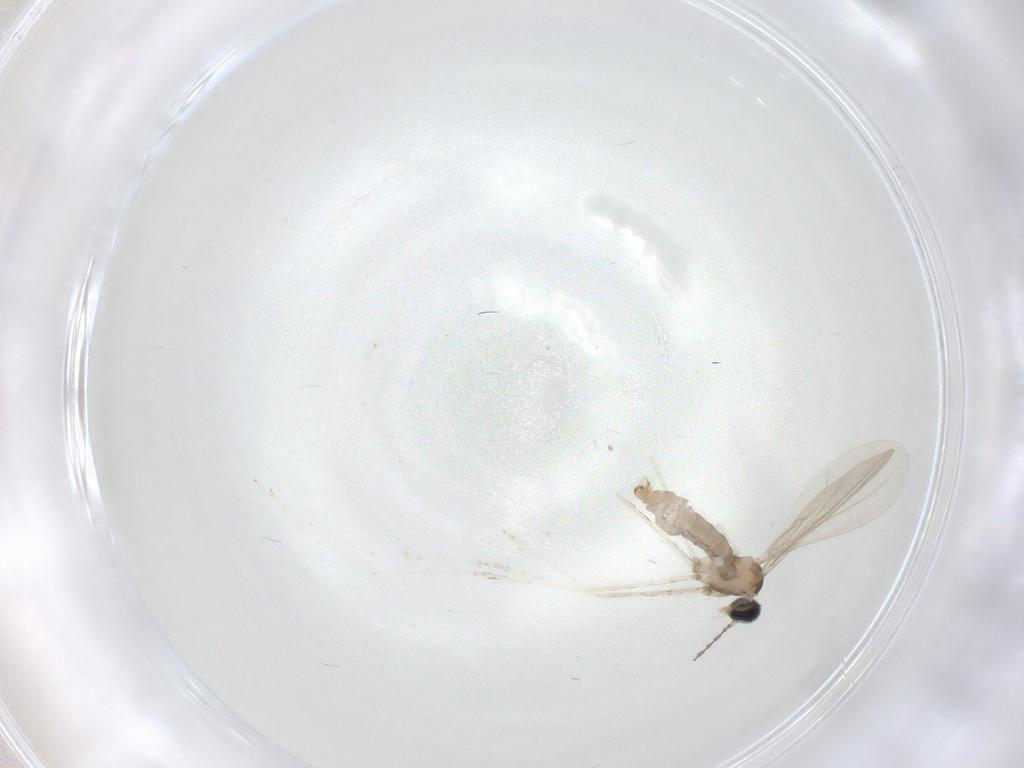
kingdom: Animalia
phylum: Arthropoda
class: Insecta
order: Diptera
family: Cecidomyiidae
